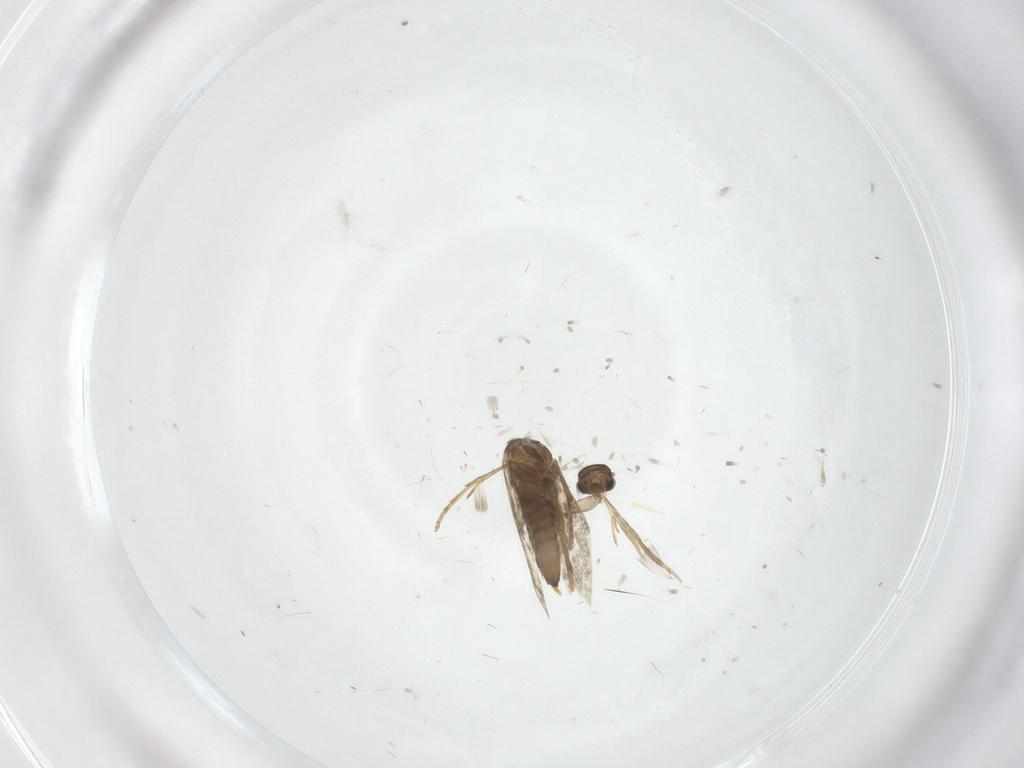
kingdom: Animalia
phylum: Arthropoda
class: Insecta
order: Lepidoptera
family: Heliozelidae
